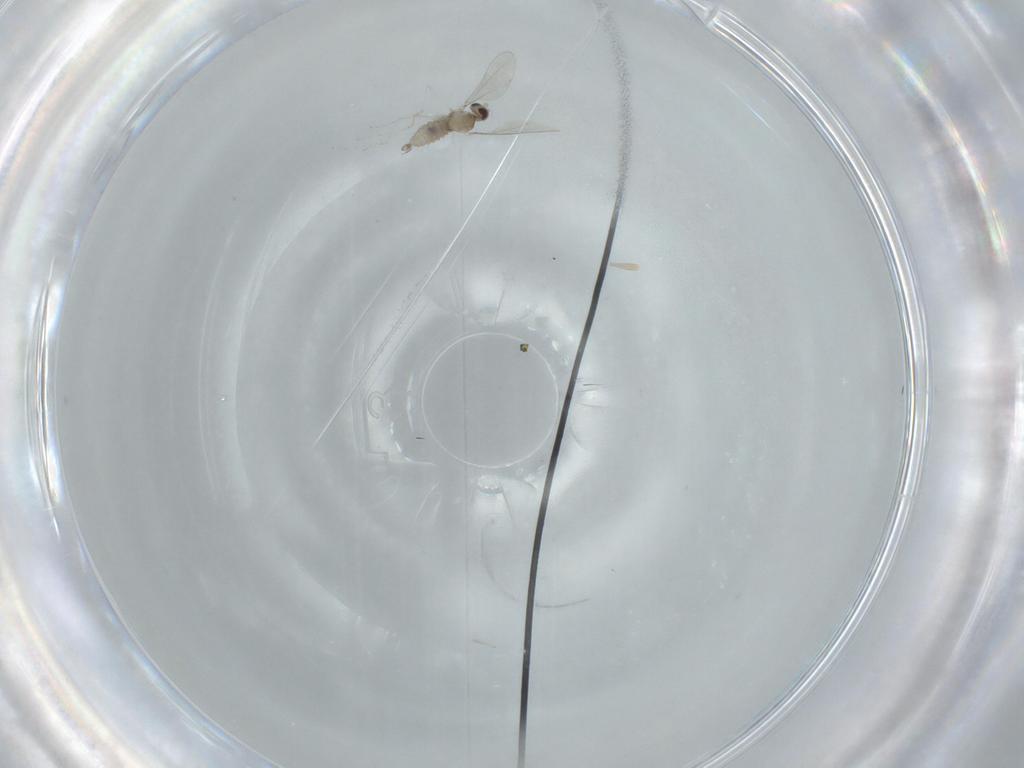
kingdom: Animalia
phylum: Arthropoda
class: Insecta
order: Diptera
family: Cecidomyiidae
